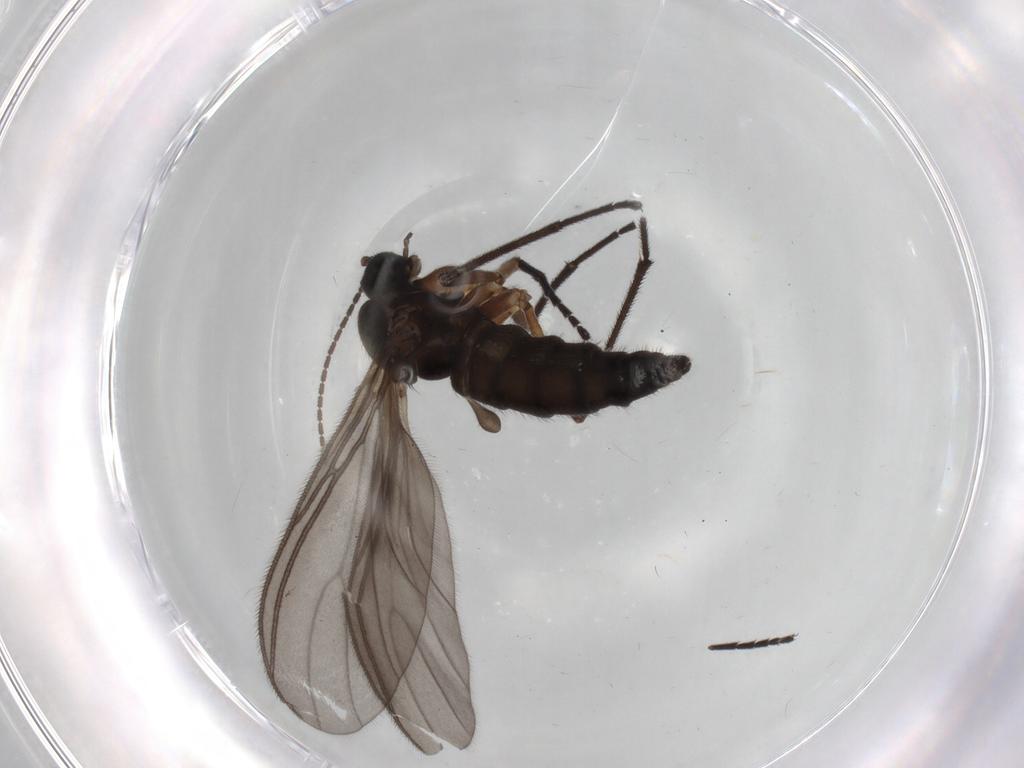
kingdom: Animalia
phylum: Arthropoda
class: Insecta
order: Diptera
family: Sciaridae
